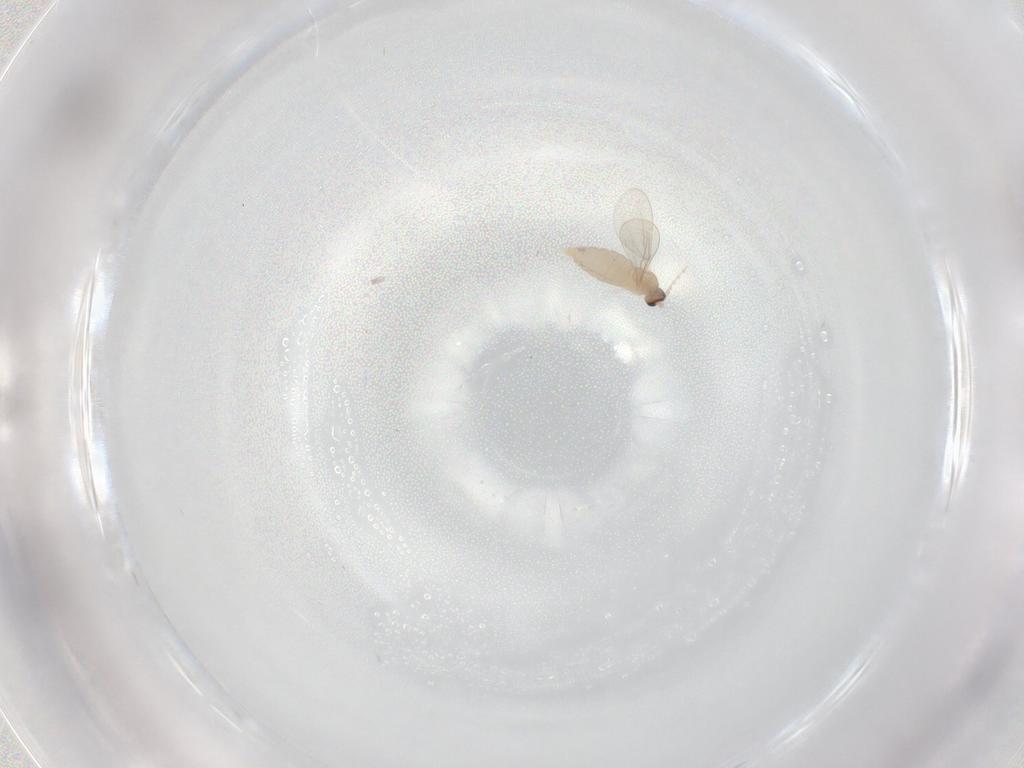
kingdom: Animalia
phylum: Arthropoda
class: Insecta
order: Diptera
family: Cecidomyiidae
